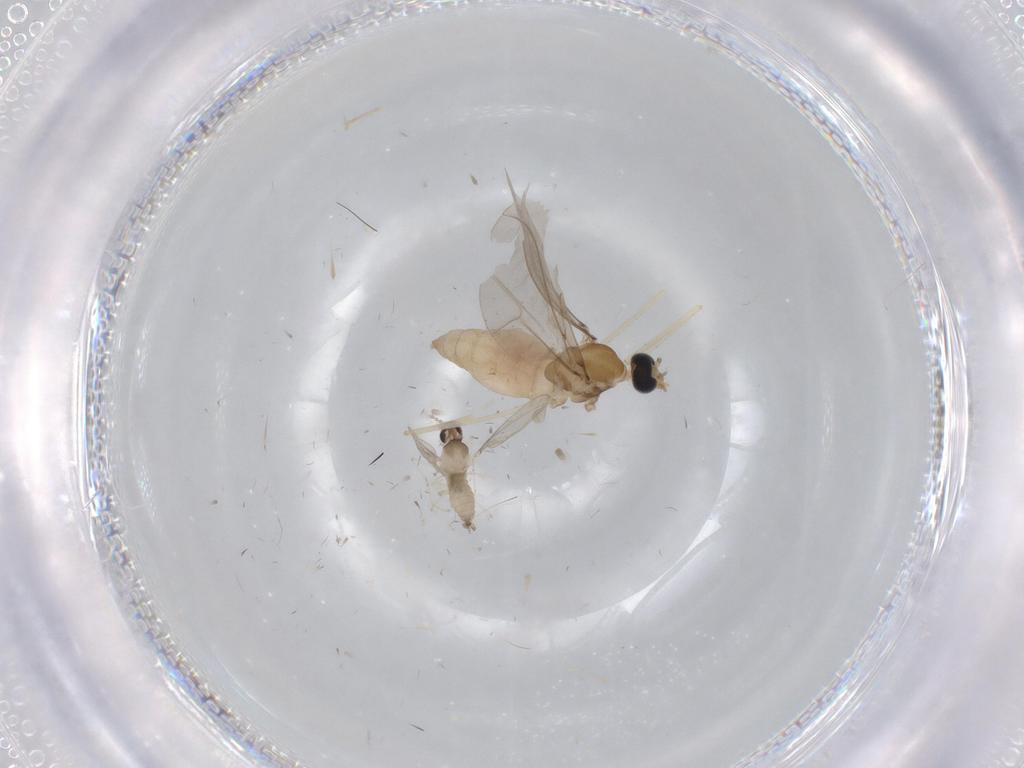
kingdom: Animalia
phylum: Arthropoda
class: Insecta
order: Diptera
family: Cecidomyiidae
